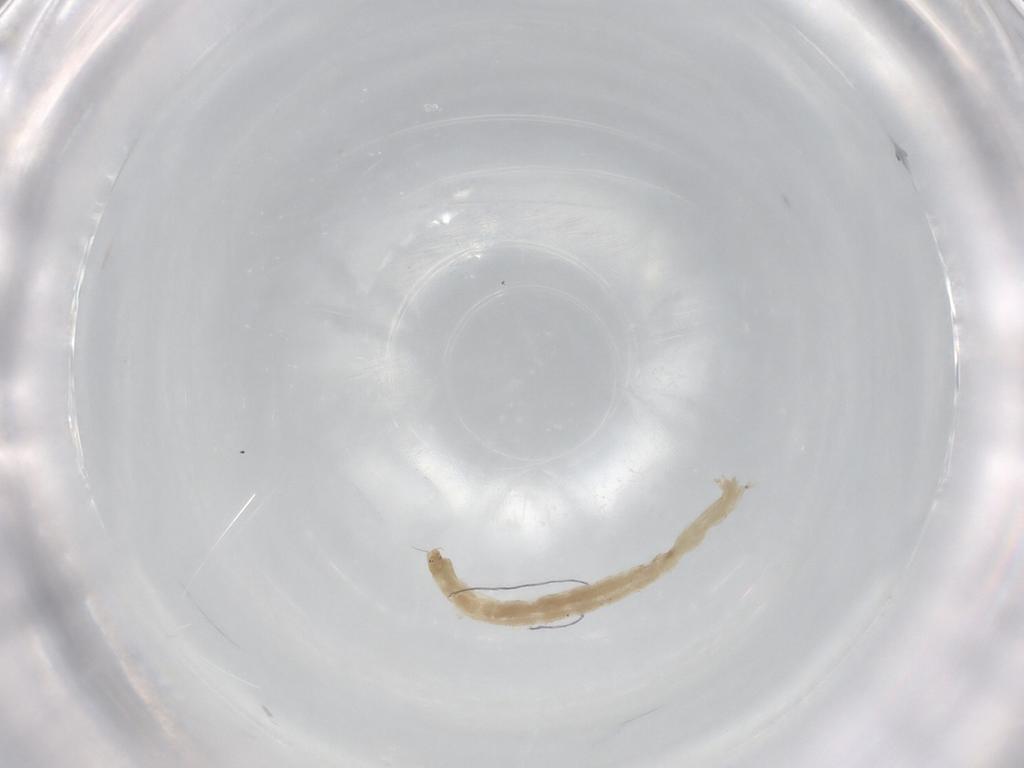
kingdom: Animalia
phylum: Arthropoda
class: Insecta
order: Diptera
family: Chironomidae
